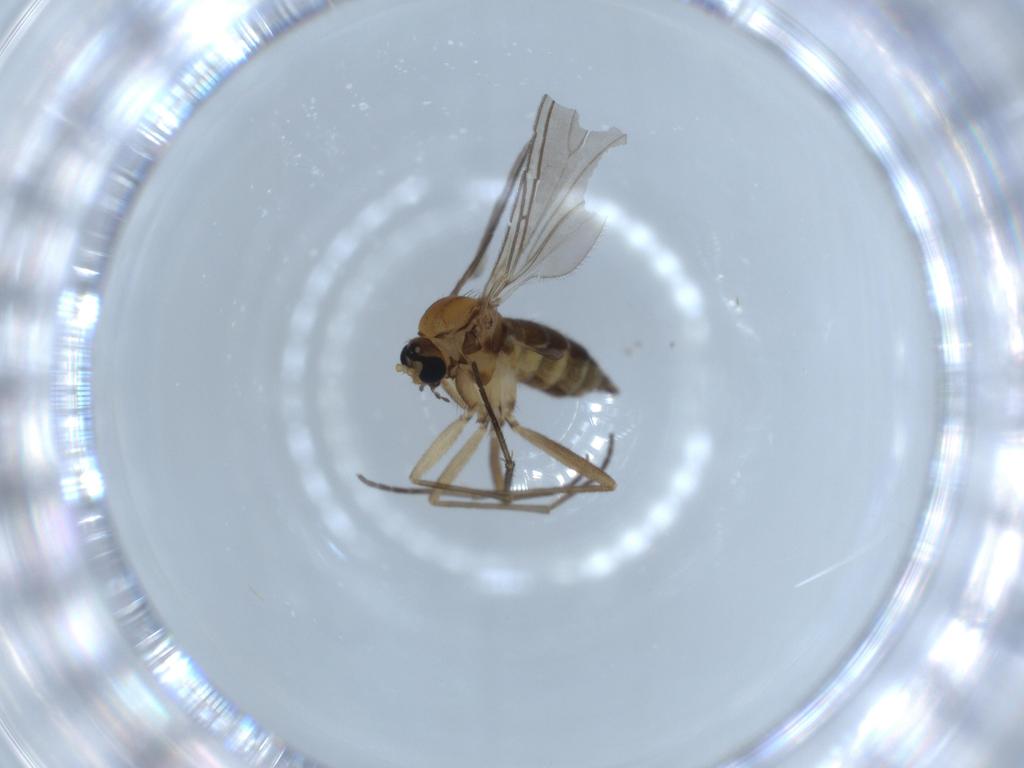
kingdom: Animalia
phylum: Arthropoda
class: Insecta
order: Diptera
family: Sciaridae
